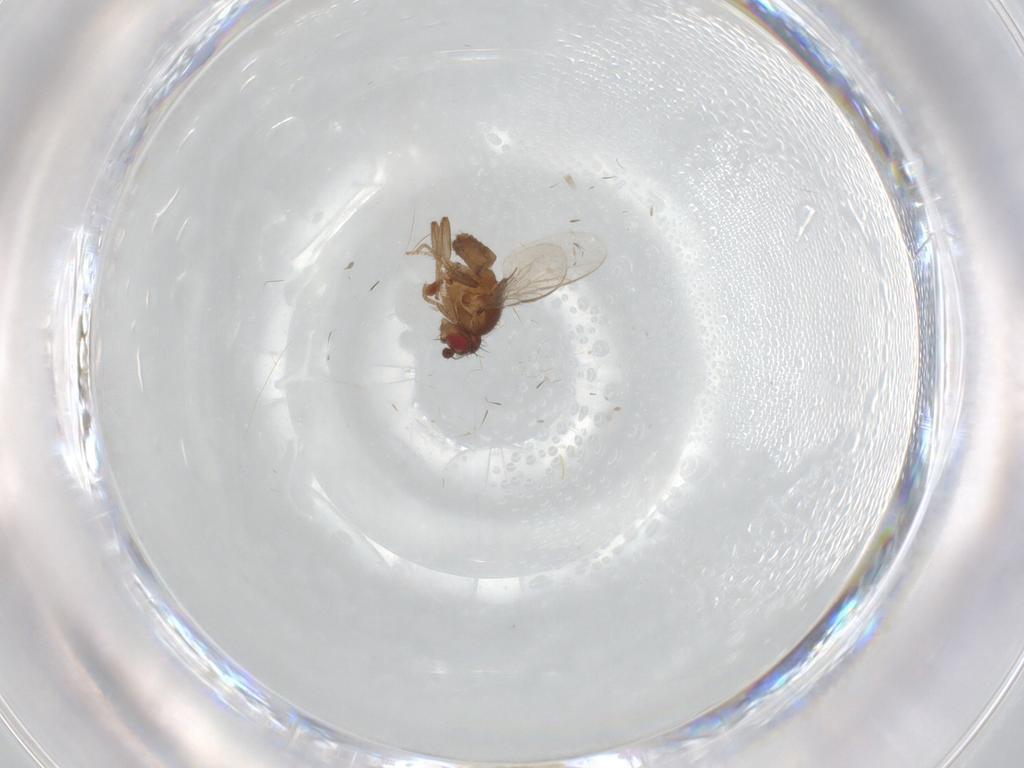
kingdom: Animalia
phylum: Arthropoda
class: Insecta
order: Diptera
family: Sphaeroceridae
